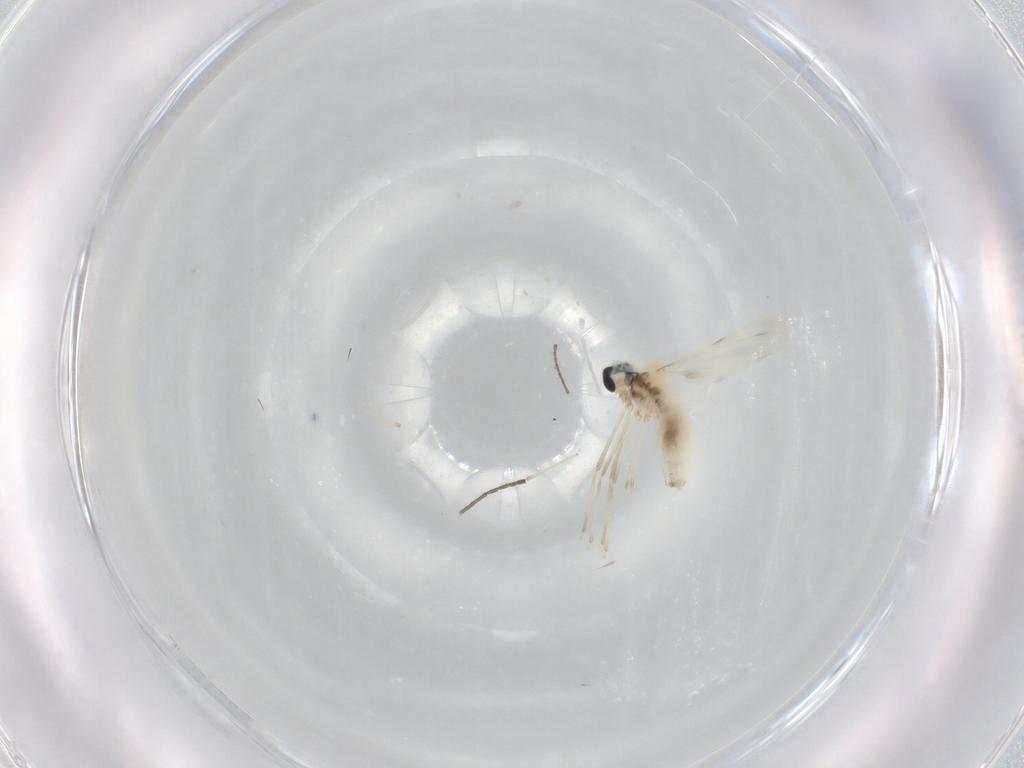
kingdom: Animalia
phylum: Arthropoda
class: Insecta
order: Diptera
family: Cecidomyiidae
